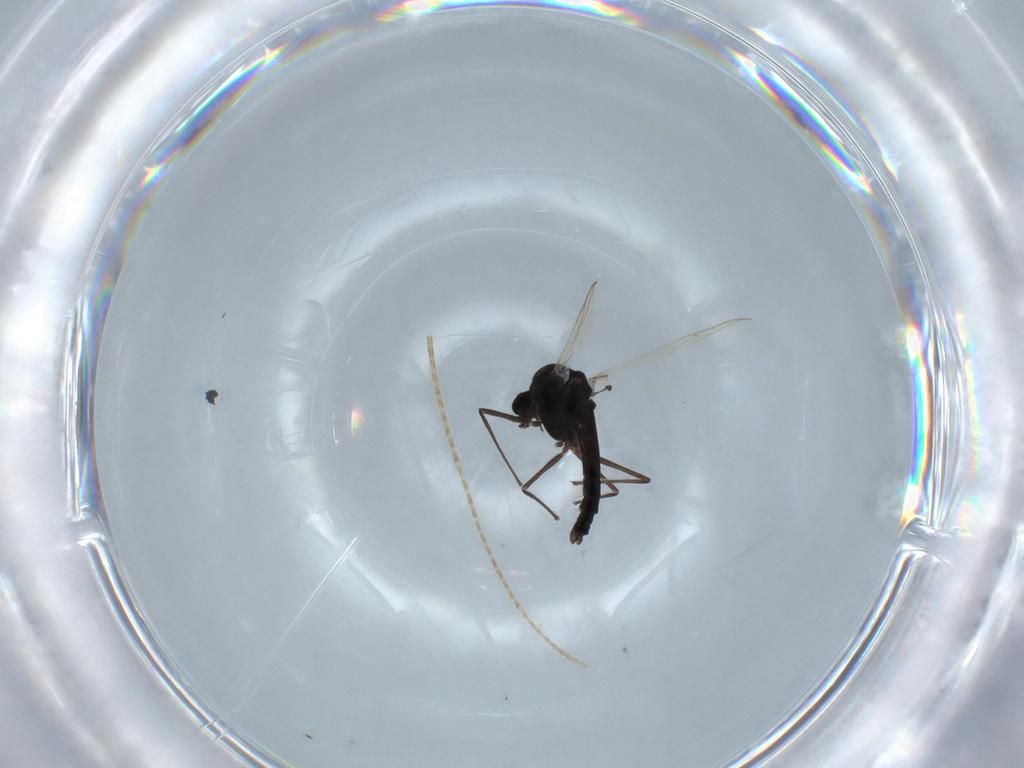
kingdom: Animalia
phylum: Arthropoda
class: Insecta
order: Diptera
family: Chironomidae
